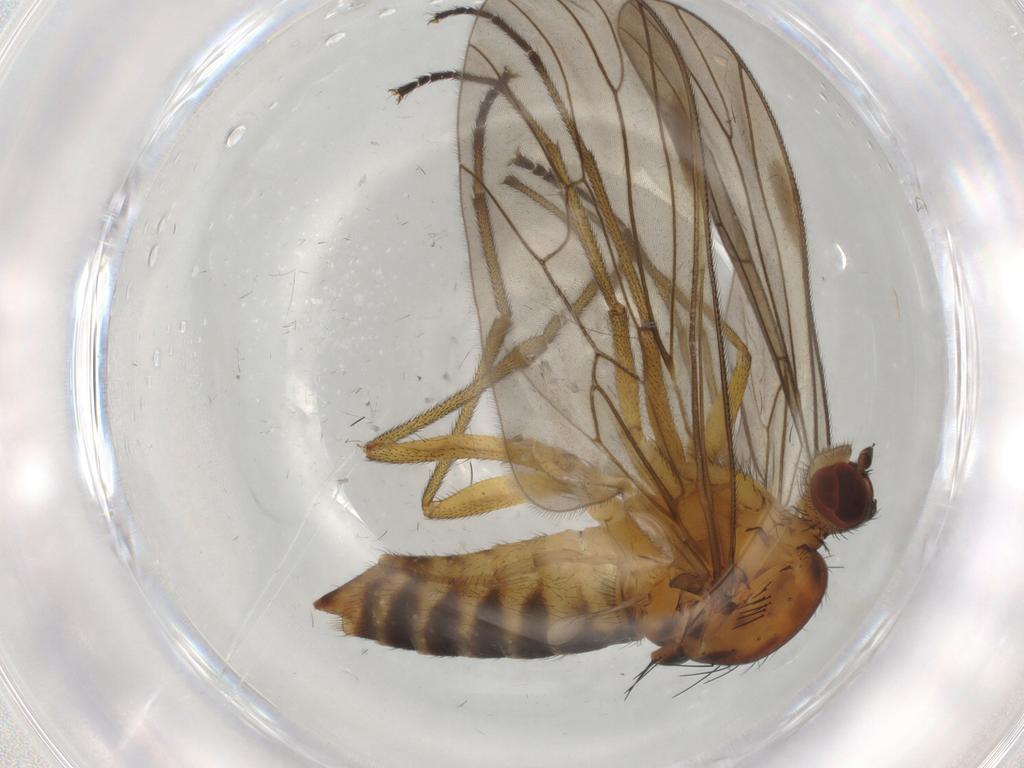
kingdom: Animalia
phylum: Arthropoda
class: Insecta
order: Diptera
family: Brachystomatidae
